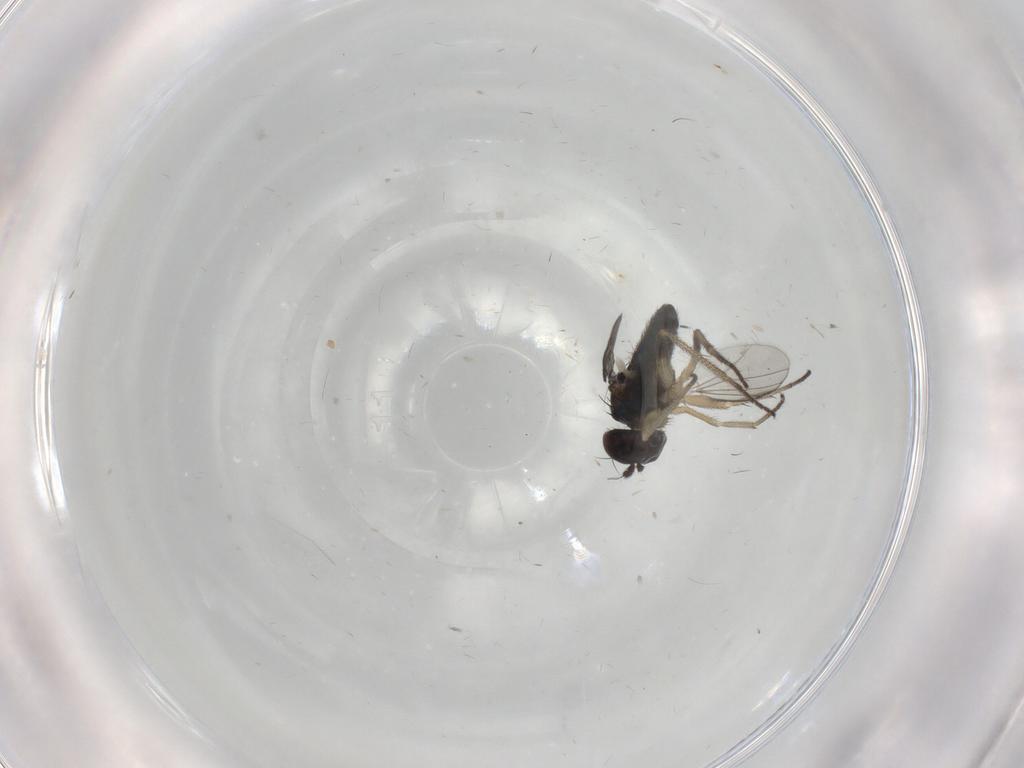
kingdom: Animalia
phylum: Arthropoda
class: Insecta
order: Diptera
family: Dolichopodidae
